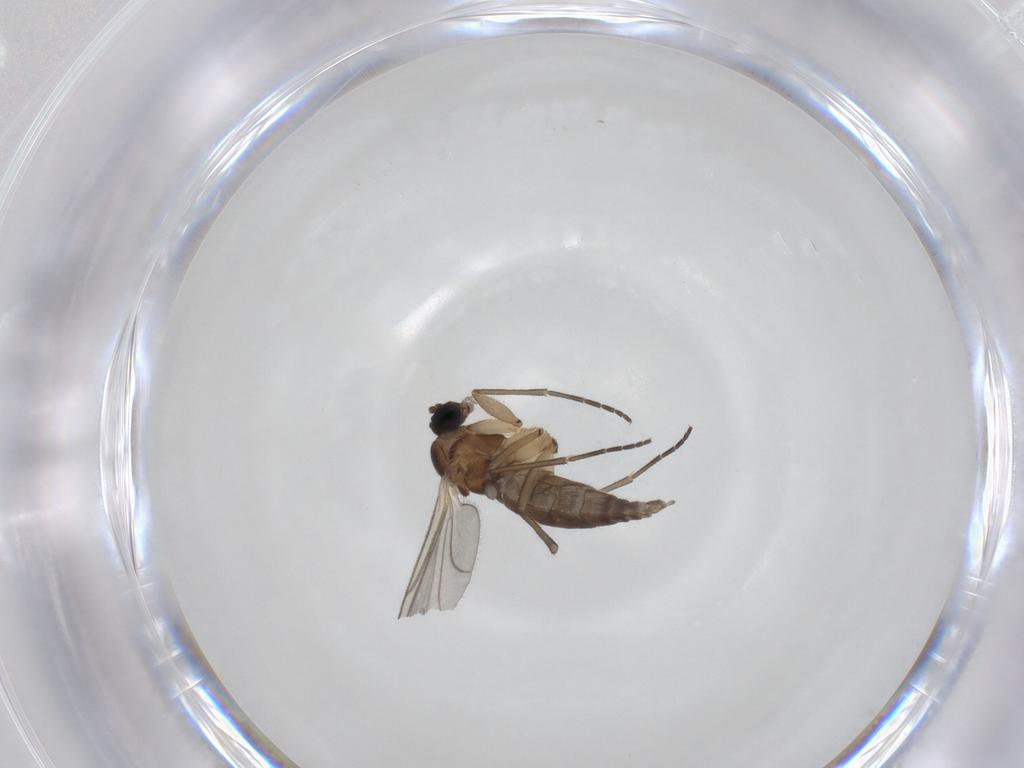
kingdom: Animalia
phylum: Arthropoda
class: Insecta
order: Diptera
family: Sciaridae
